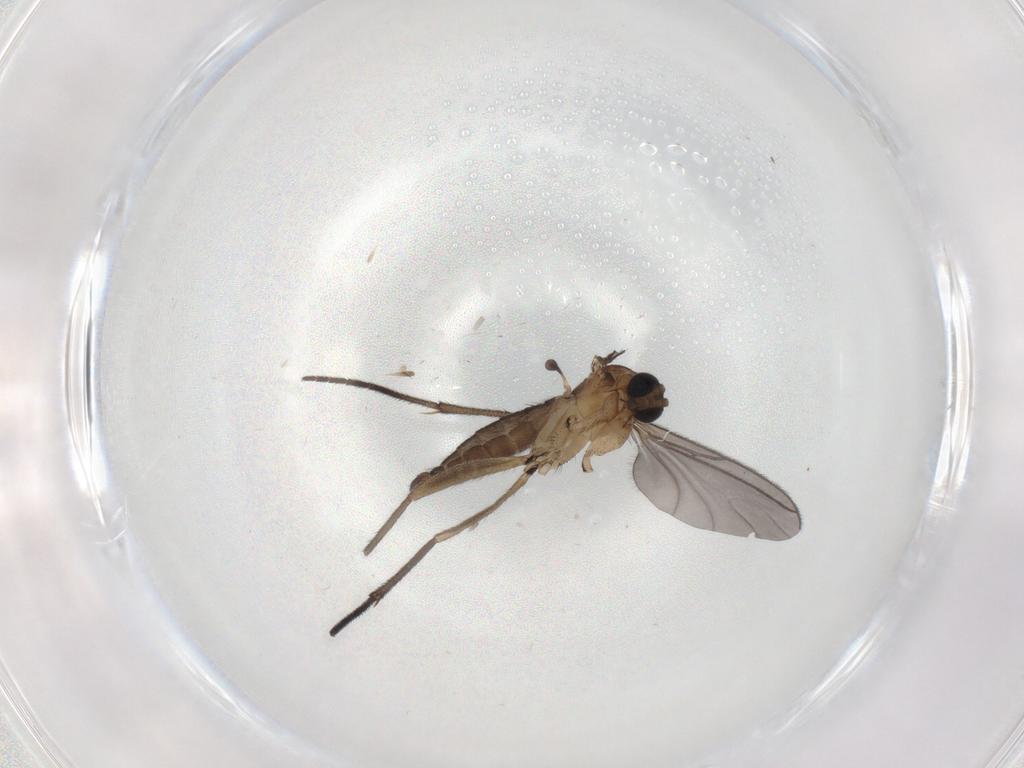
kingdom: Animalia
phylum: Arthropoda
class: Insecta
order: Diptera
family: Sciaridae
